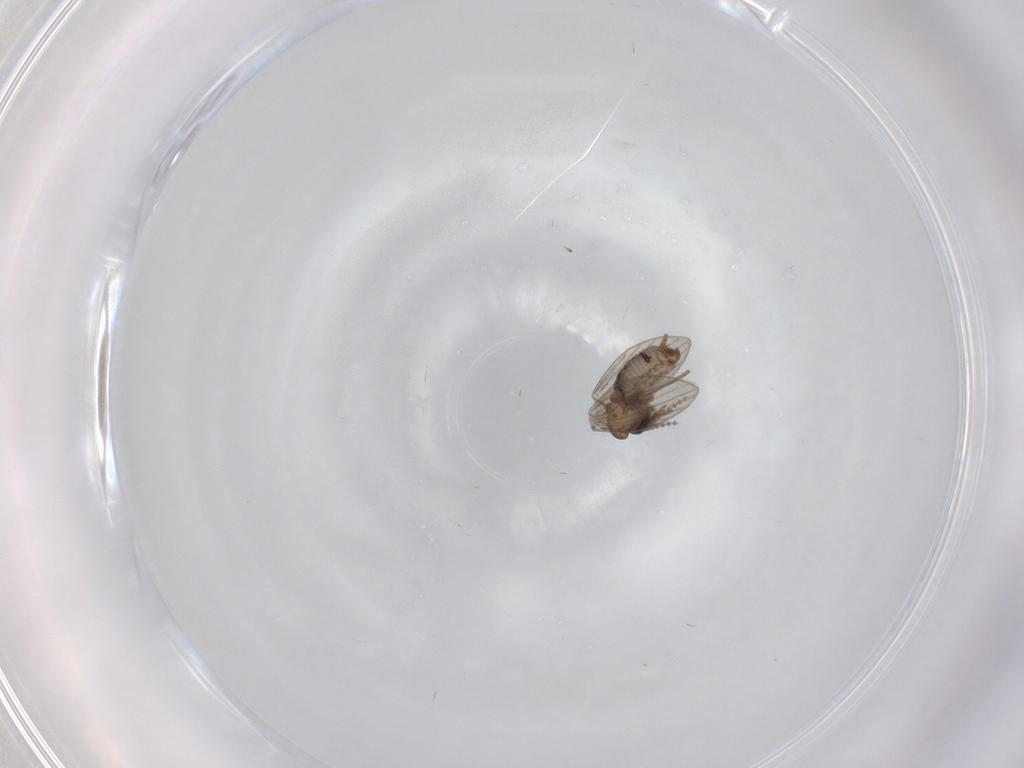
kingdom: Animalia
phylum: Arthropoda
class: Insecta
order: Diptera
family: Psychodidae
